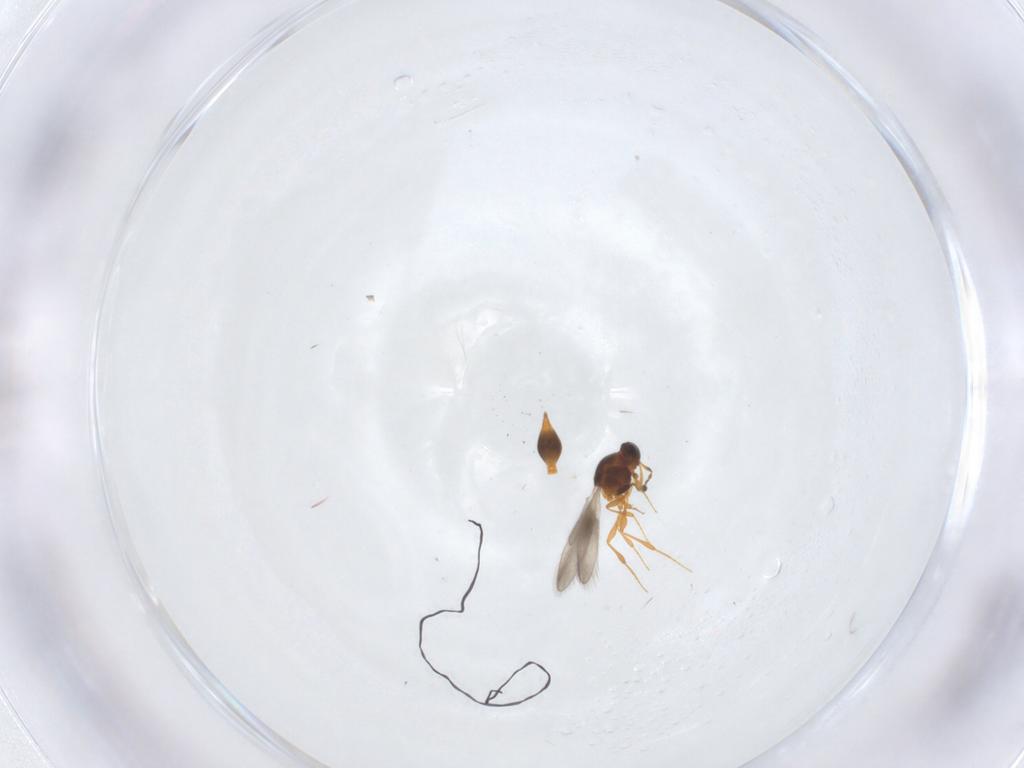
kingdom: Animalia
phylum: Arthropoda
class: Insecta
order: Hymenoptera
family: Platygastridae
